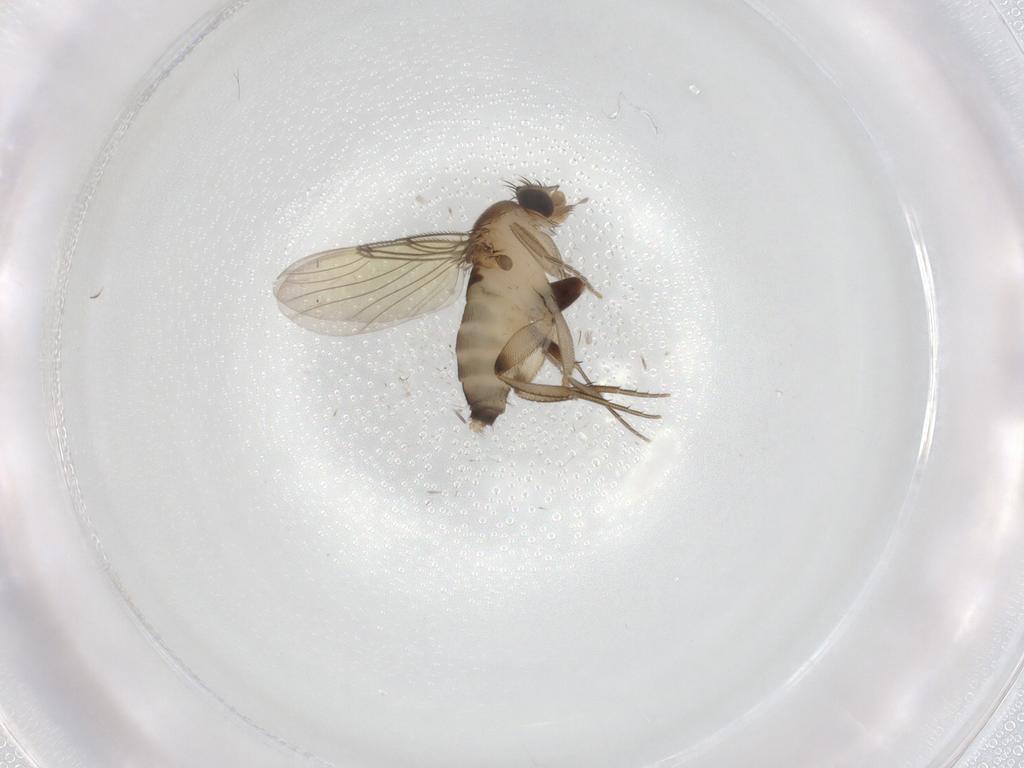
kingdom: Animalia
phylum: Arthropoda
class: Insecta
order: Diptera
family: Phoridae
